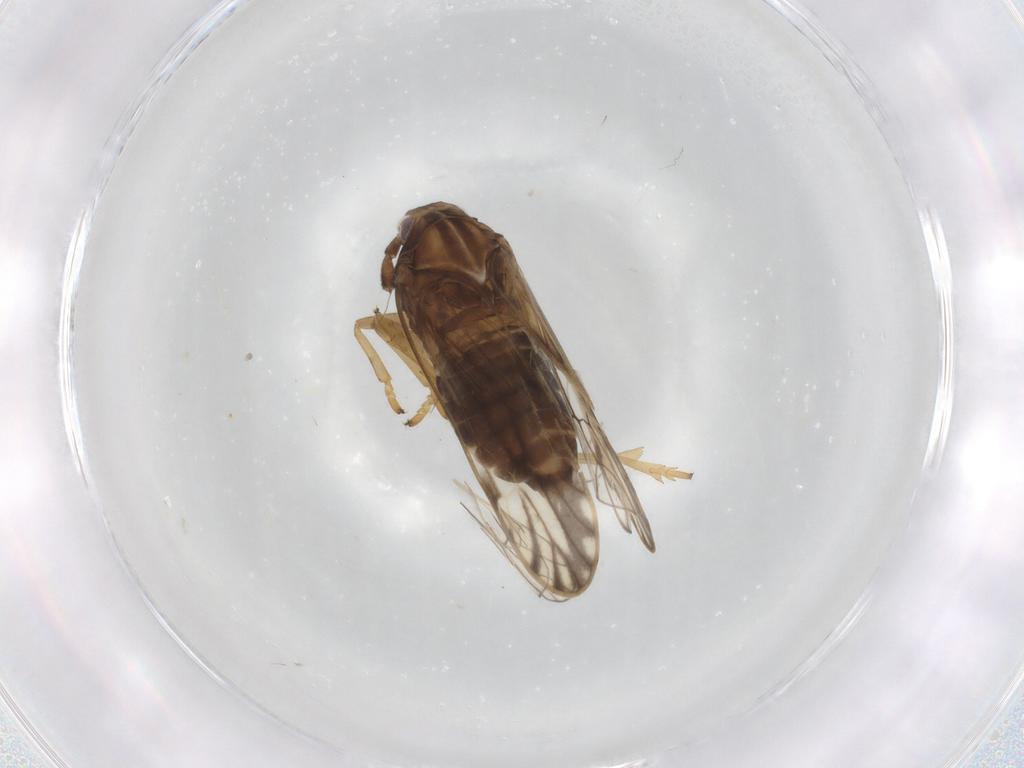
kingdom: Animalia
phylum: Arthropoda
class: Insecta
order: Hemiptera
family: Delphacidae
